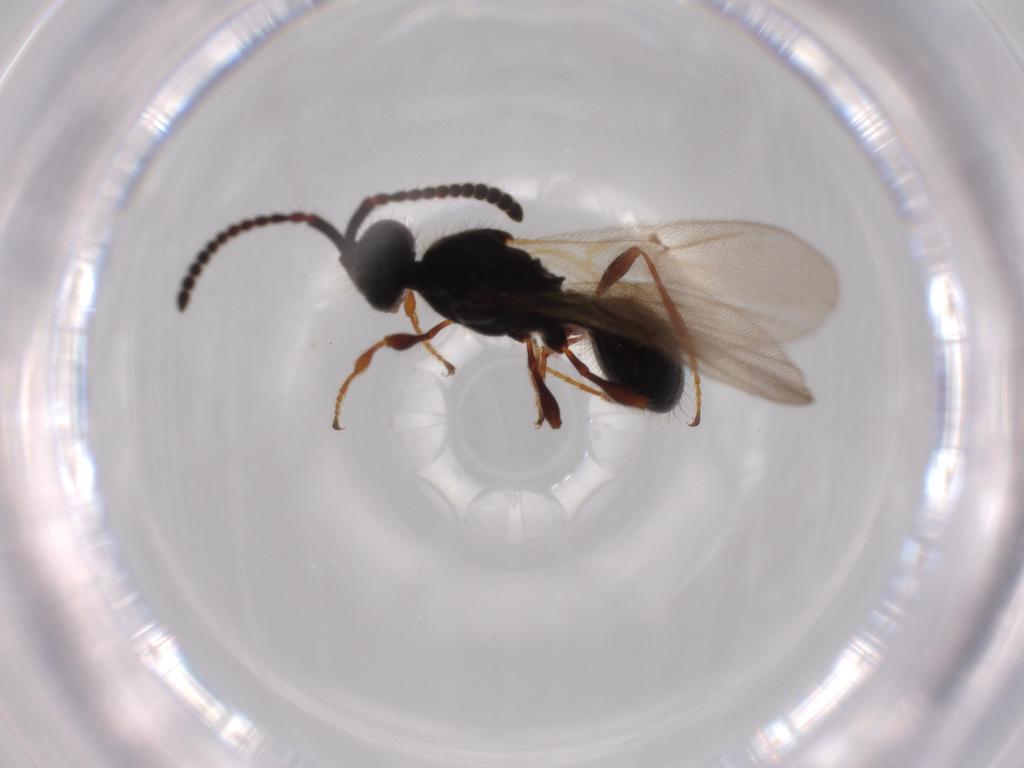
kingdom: Animalia
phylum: Arthropoda
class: Insecta
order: Hymenoptera
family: Diapriidae
